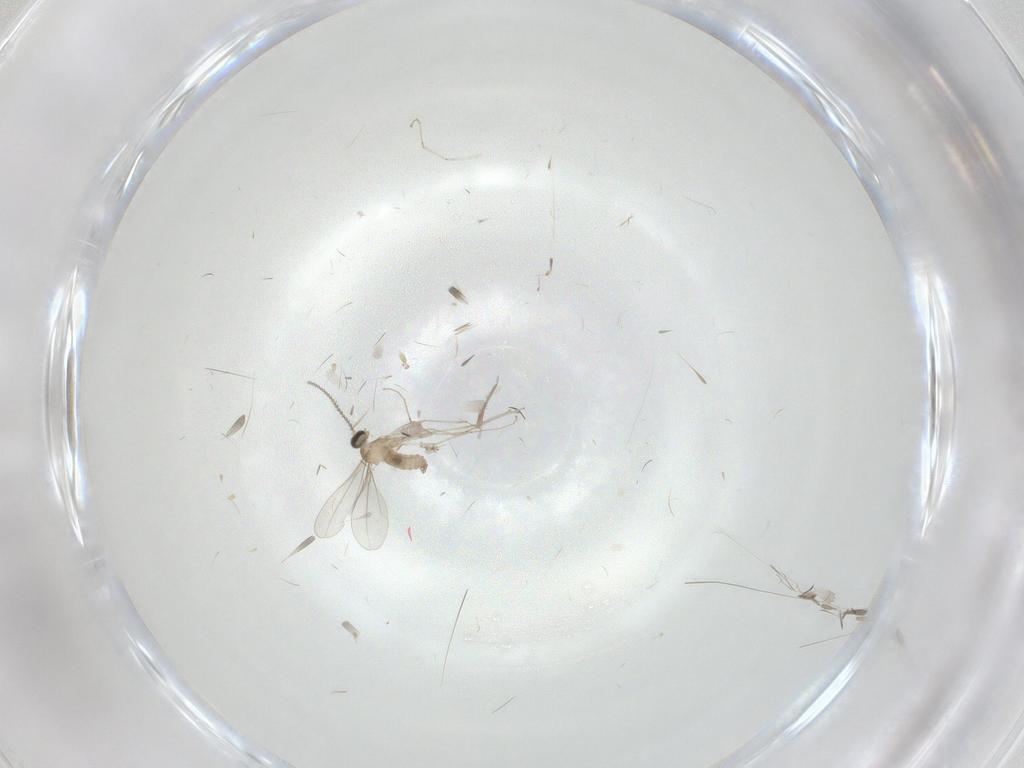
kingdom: Animalia
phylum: Arthropoda
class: Insecta
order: Diptera
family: Cecidomyiidae
